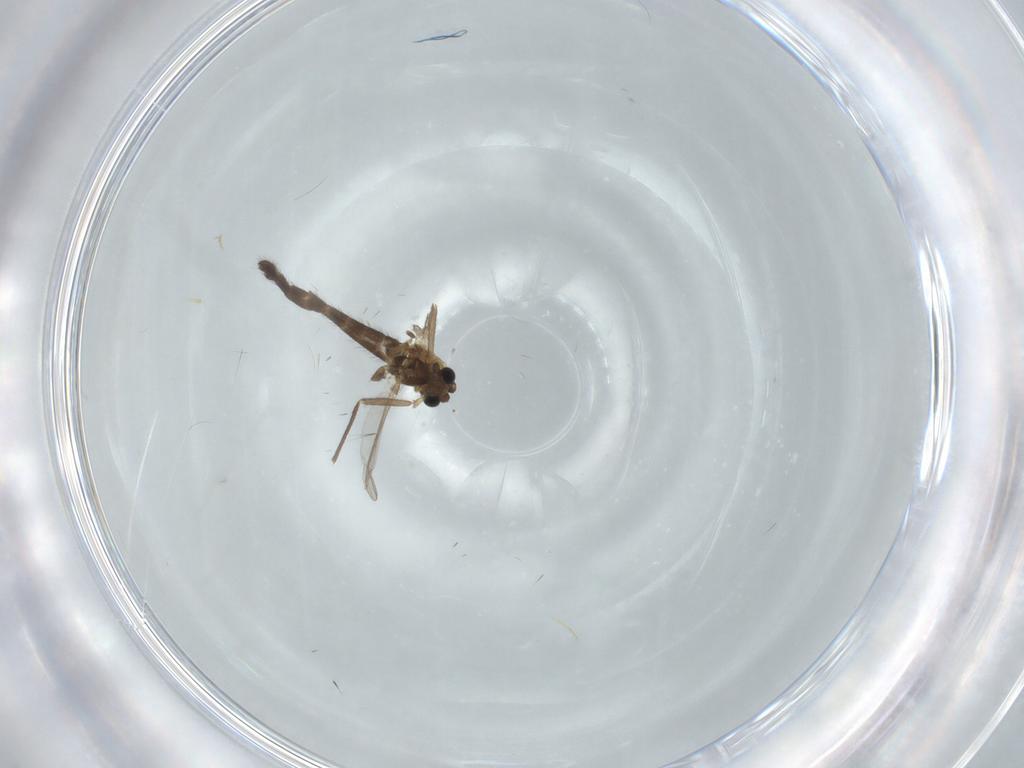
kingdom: Animalia
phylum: Arthropoda
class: Insecta
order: Diptera
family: Chironomidae
